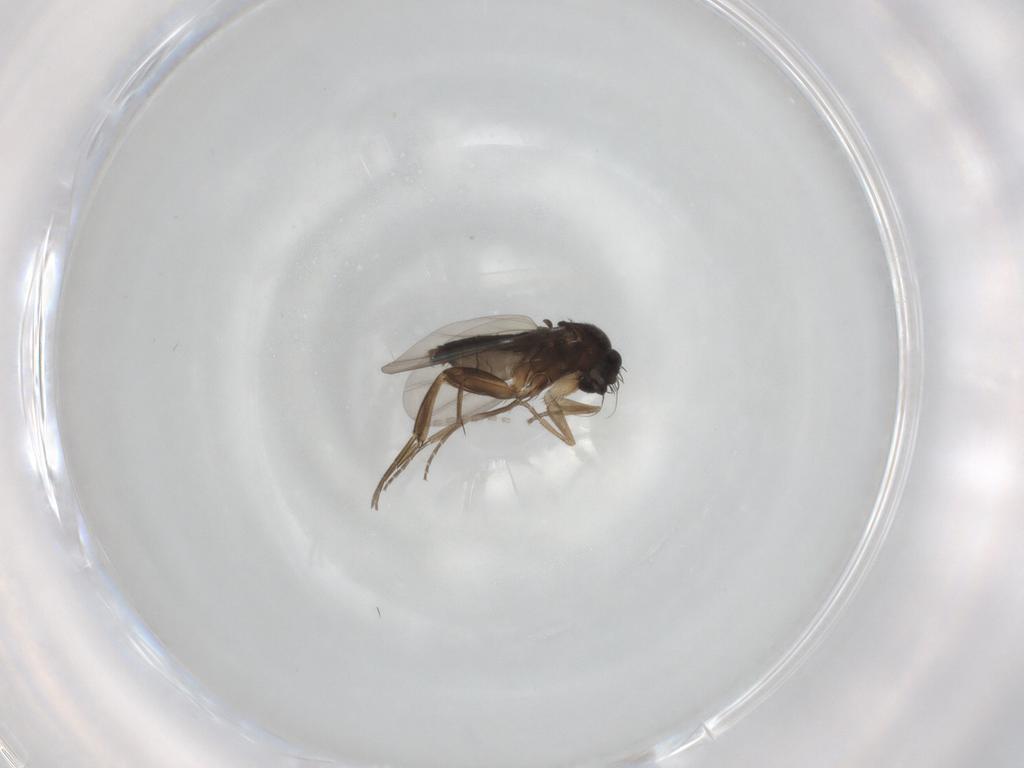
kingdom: Animalia
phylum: Arthropoda
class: Insecta
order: Diptera
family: Phoridae
